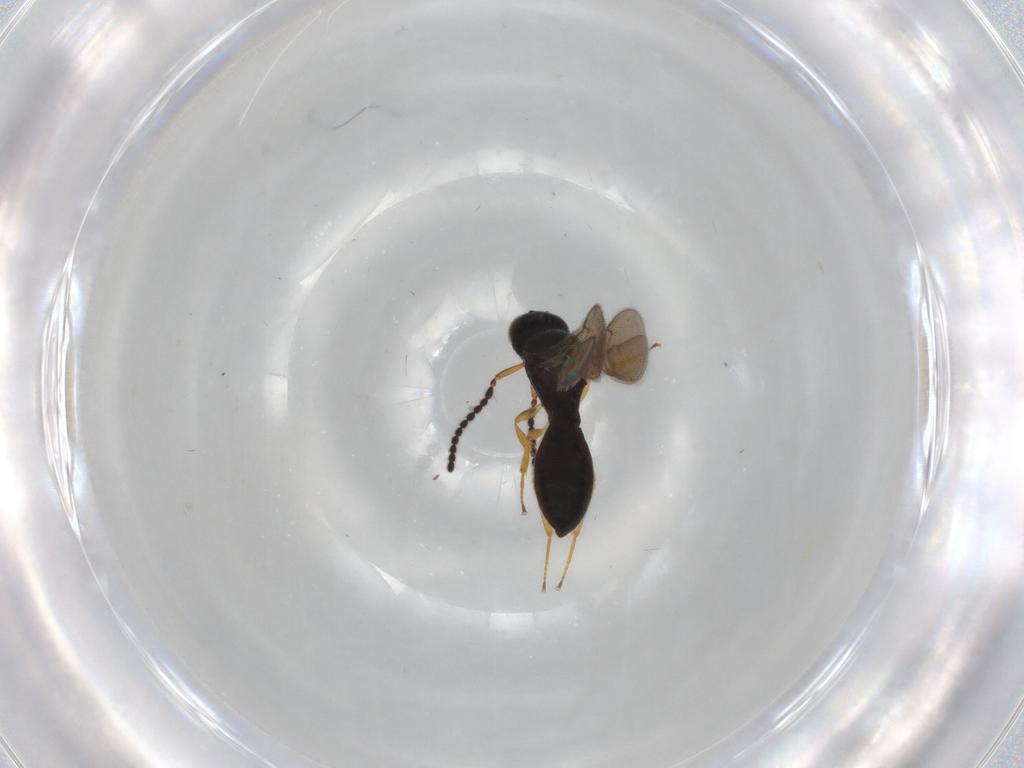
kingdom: Animalia
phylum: Arthropoda
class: Insecta
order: Hymenoptera
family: Scelionidae
